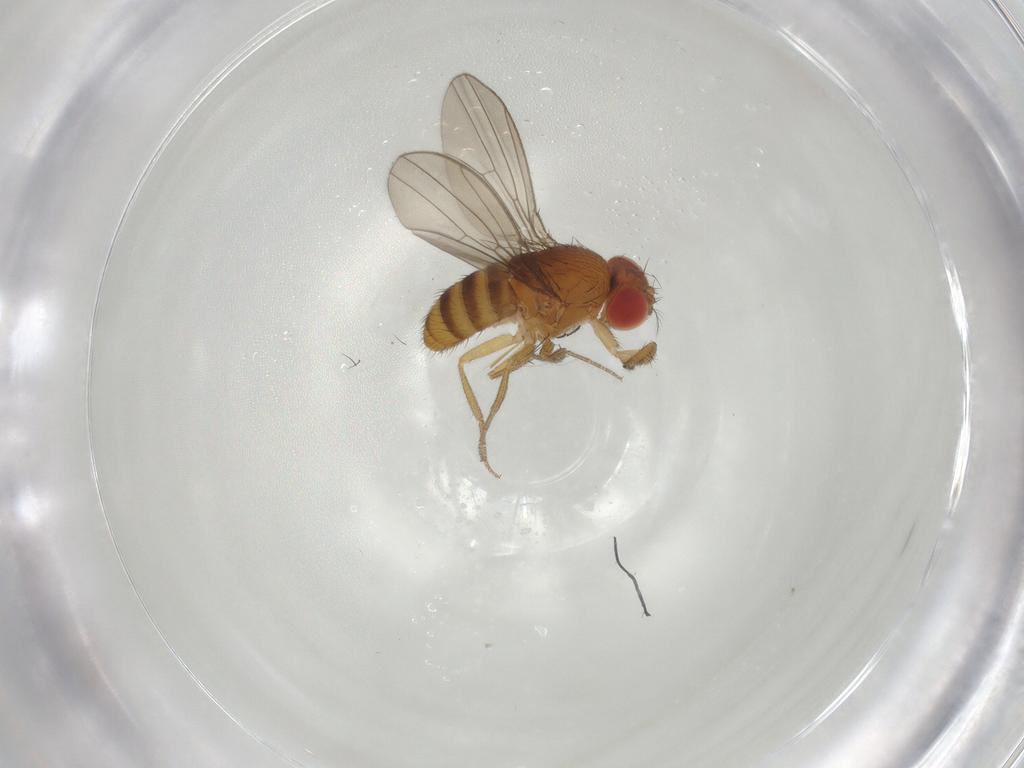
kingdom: Animalia
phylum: Arthropoda
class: Insecta
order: Diptera
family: Drosophilidae
